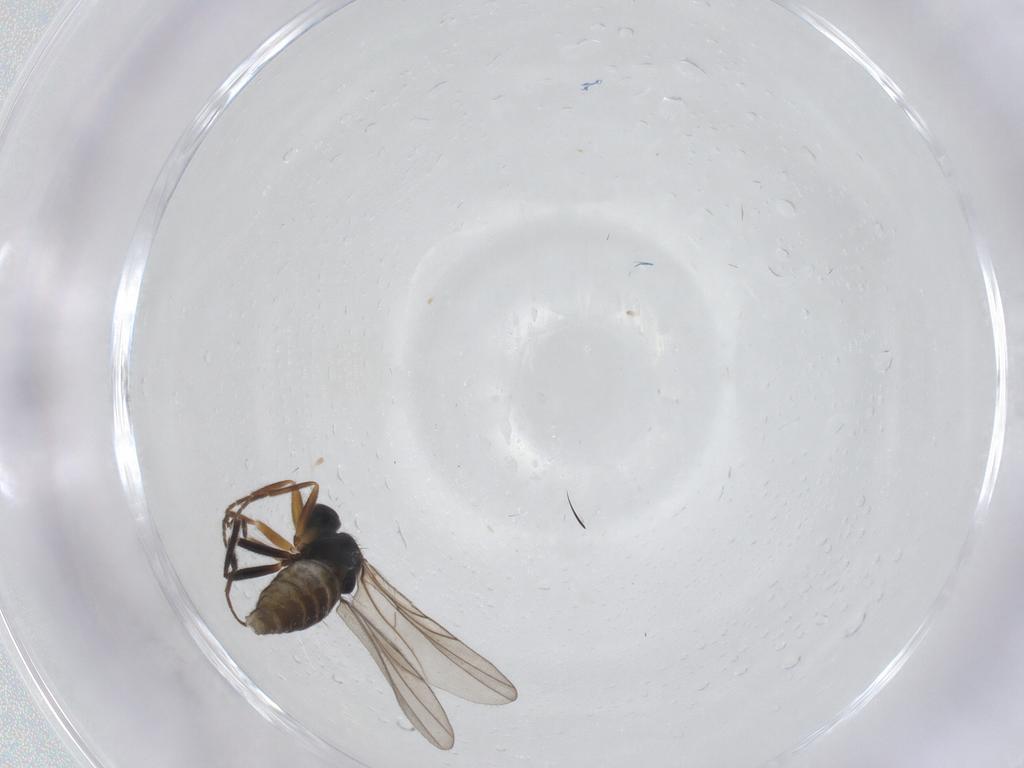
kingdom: Animalia
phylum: Arthropoda
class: Insecta
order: Diptera
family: Hybotidae
